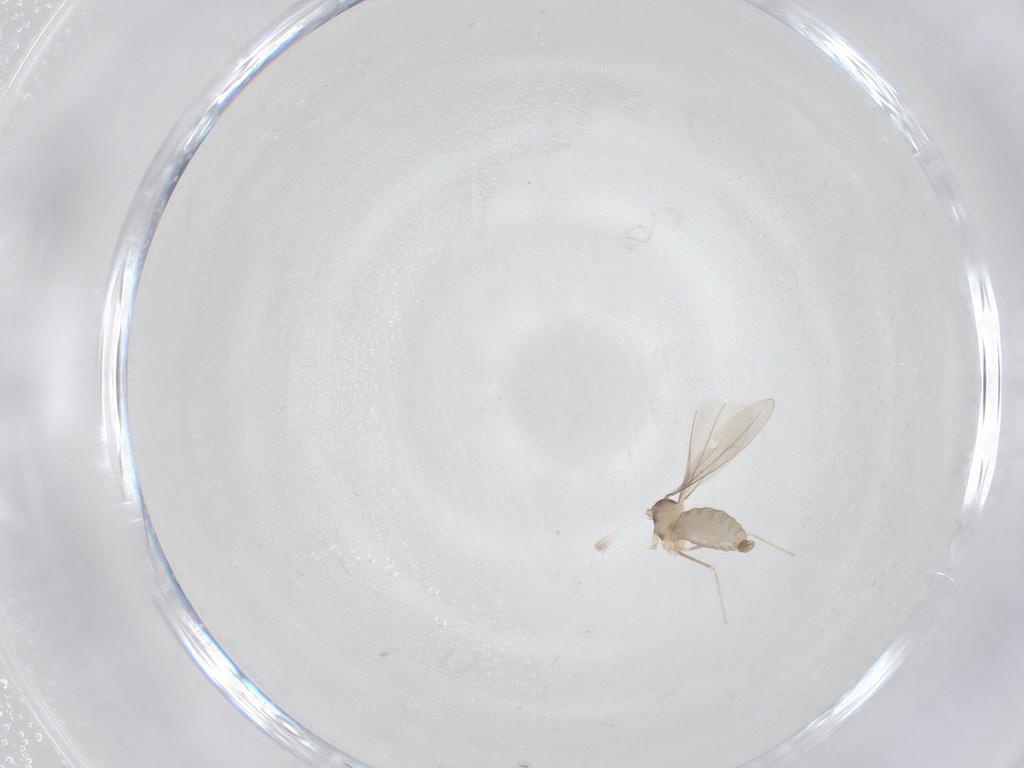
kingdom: Animalia
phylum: Arthropoda
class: Insecta
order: Diptera
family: Cecidomyiidae
